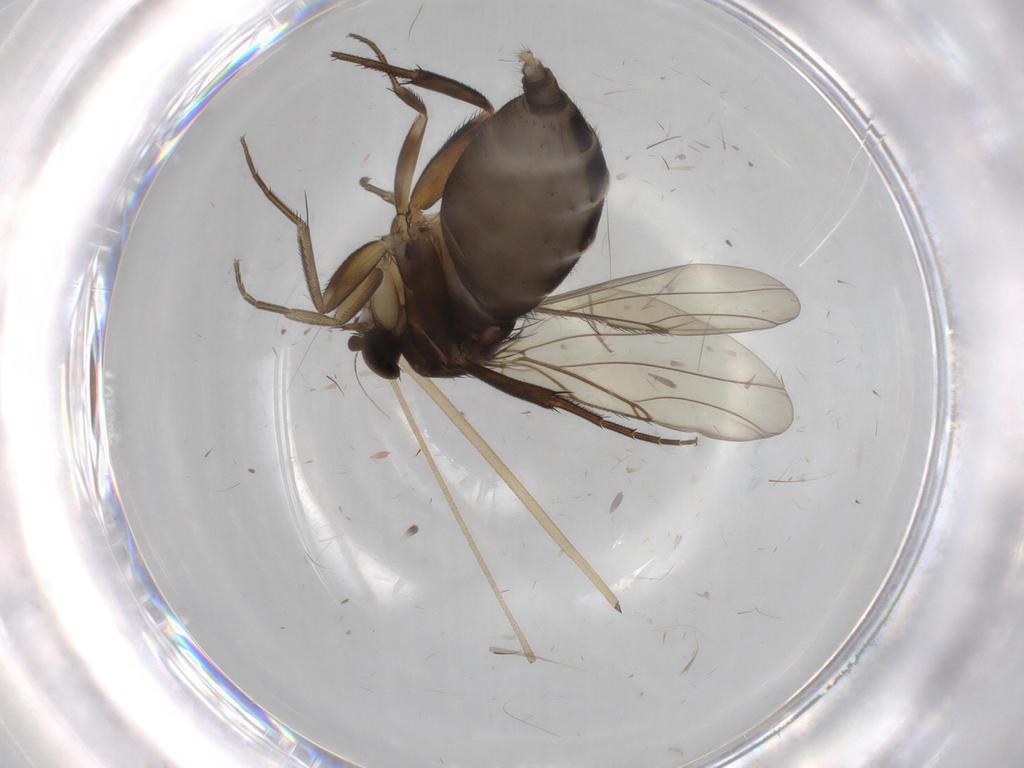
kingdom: Animalia
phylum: Arthropoda
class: Insecta
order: Diptera
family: Phoridae
